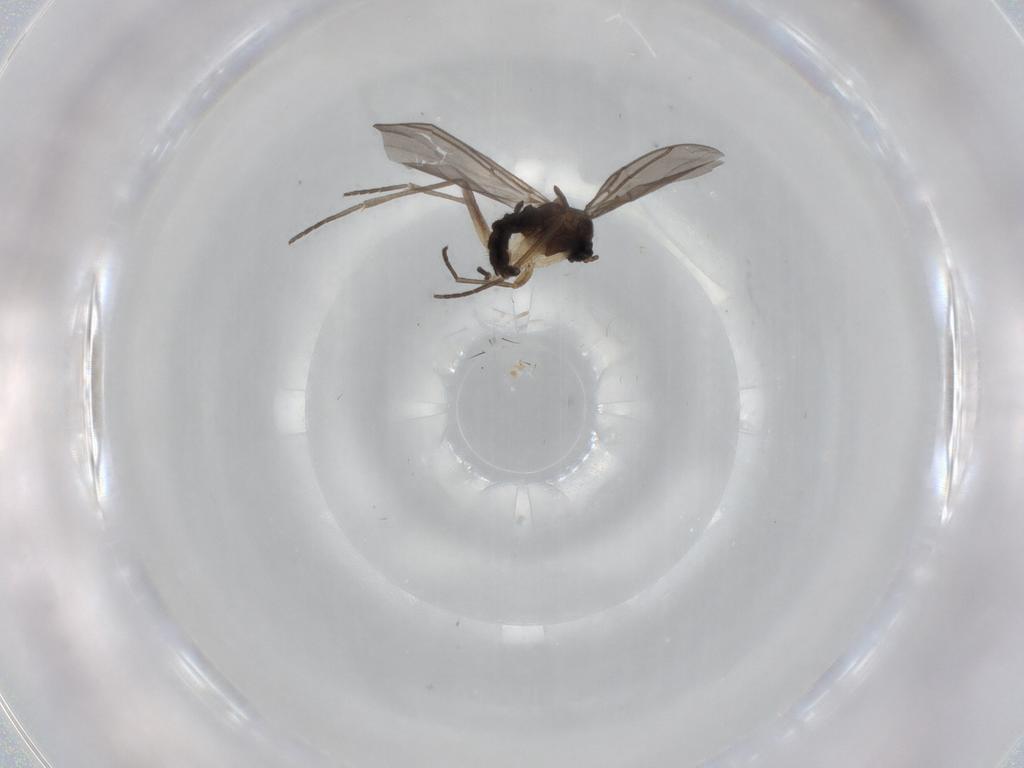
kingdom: Animalia
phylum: Arthropoda
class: Insecta
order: Diptera
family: Sciaridae
